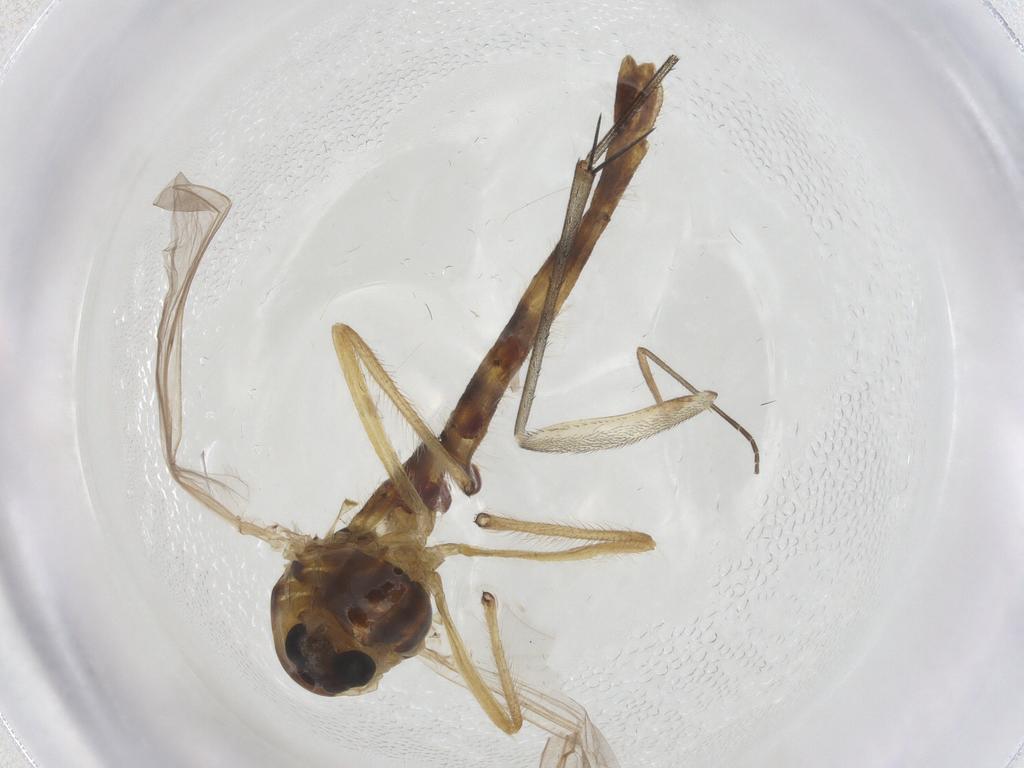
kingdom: Animalia
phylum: Arthropoda
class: Insecta
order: Diptera
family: Chironomidae
